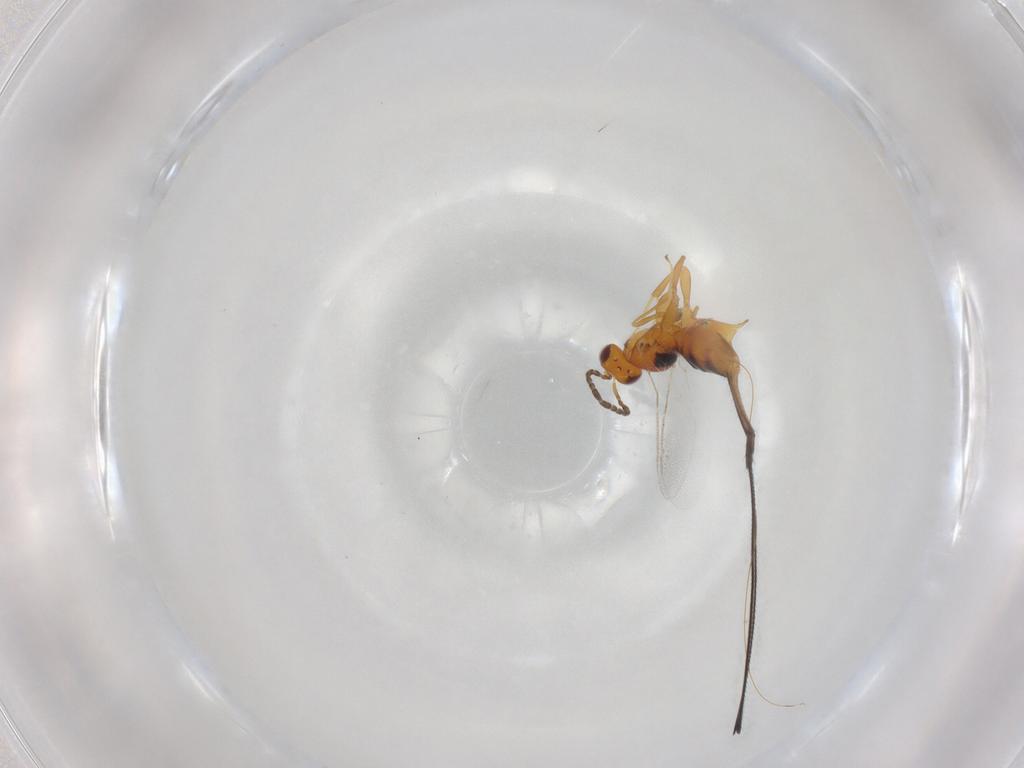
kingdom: Animalia
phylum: Arthropoda
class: Insecta
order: Hymenoptera
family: Pteromalidae
